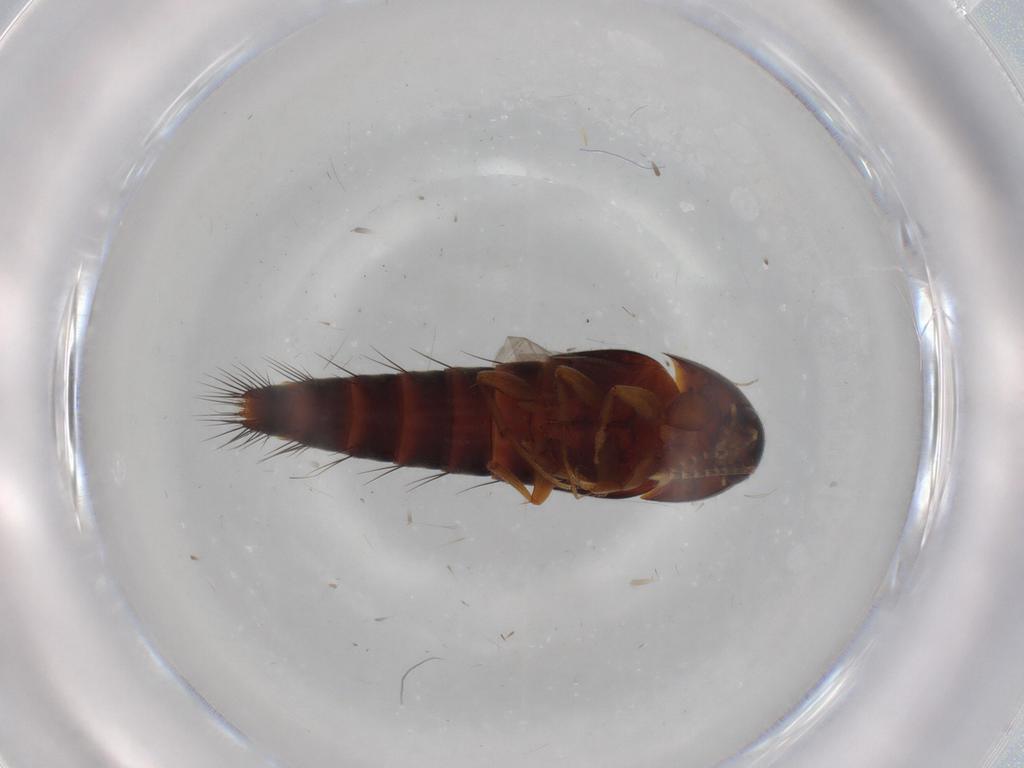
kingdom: Animalia
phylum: Arthropoda
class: Insecta
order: Coleoptera
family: Staphylinidae
